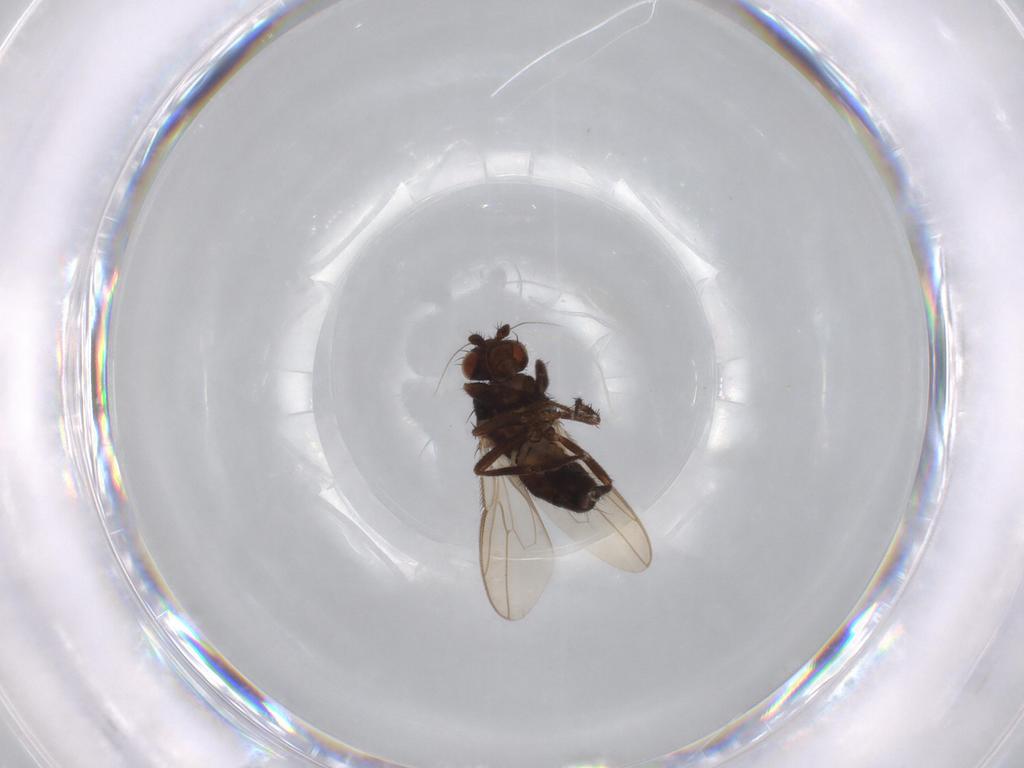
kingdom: Animalia
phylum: Arthropoda
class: Insecta
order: Diptera
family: Sphaeroceridae
